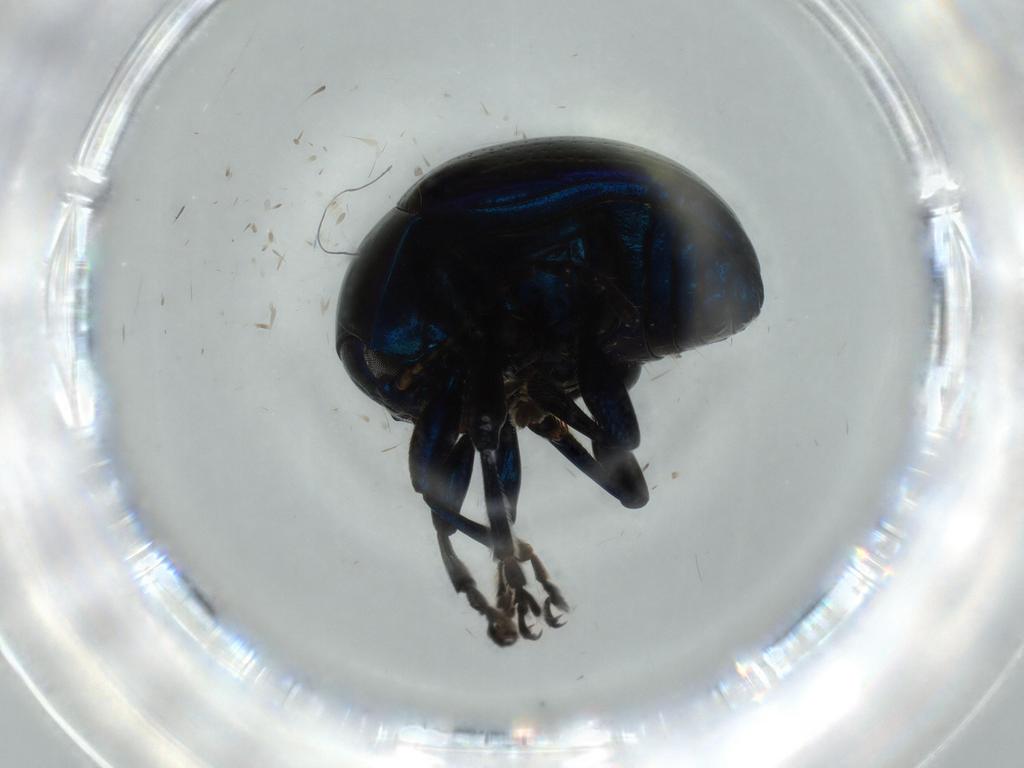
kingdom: Animalia
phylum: Arthropoda
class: Insecta
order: Coleoptera
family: Chrysomelidae
